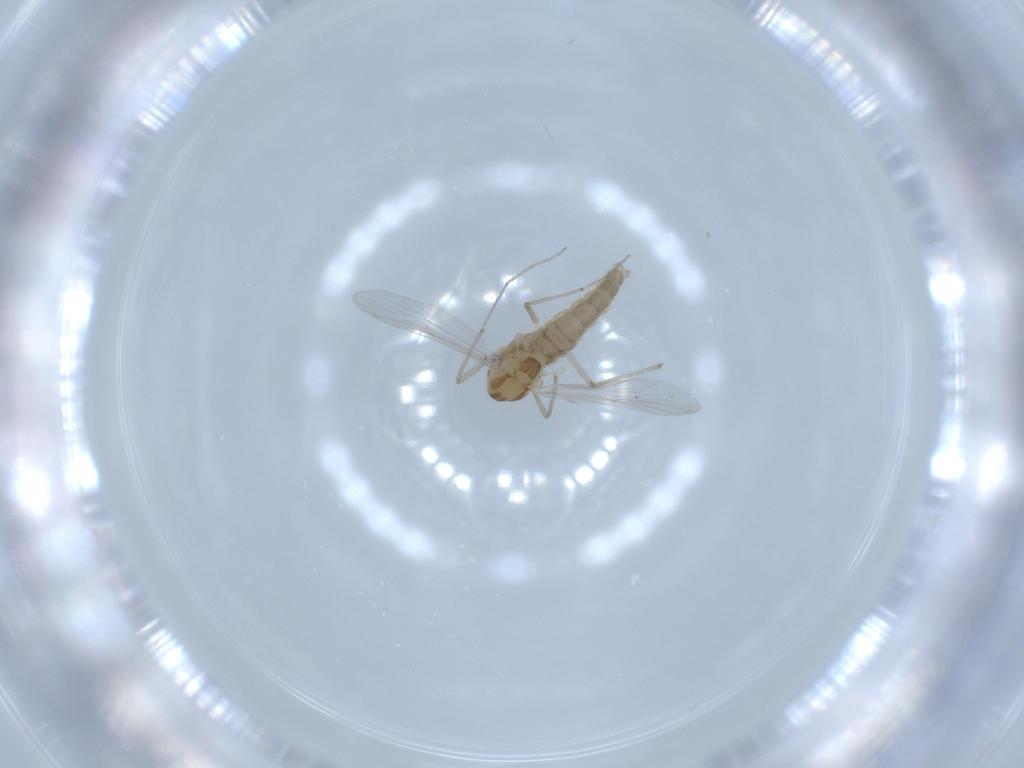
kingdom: Animalia
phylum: Arthropoda
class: Insecta
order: Diptera
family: Chironomidae
